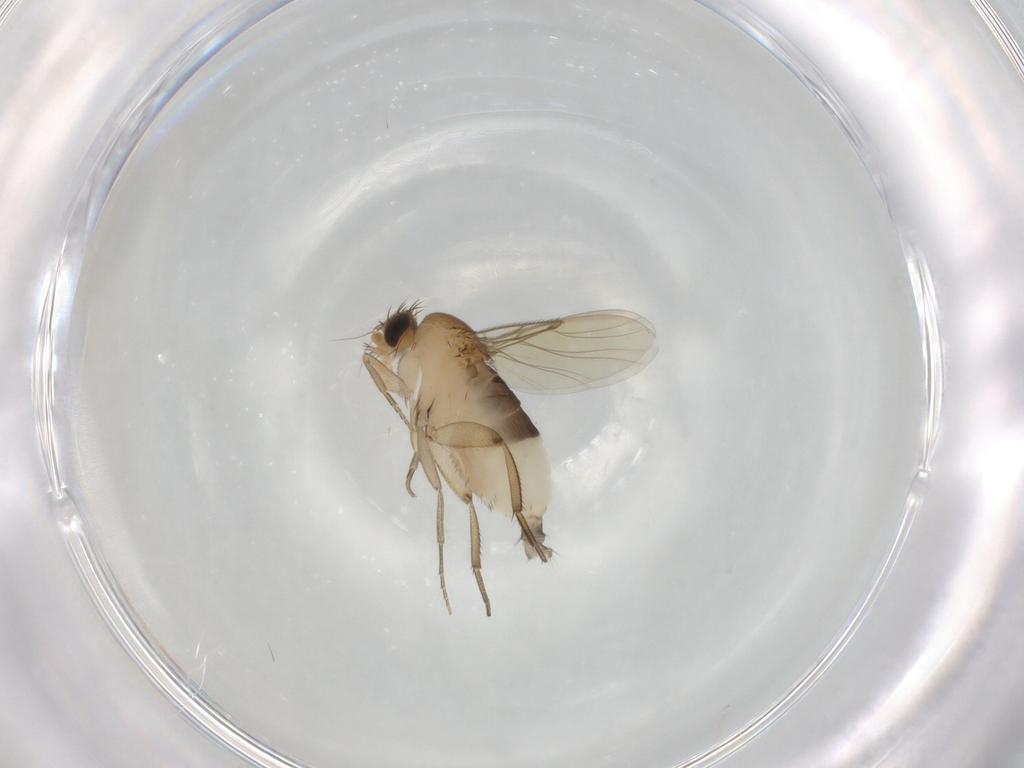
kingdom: Animalia
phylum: Arthropoda
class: Insecta
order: Diptera
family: Phoridae
